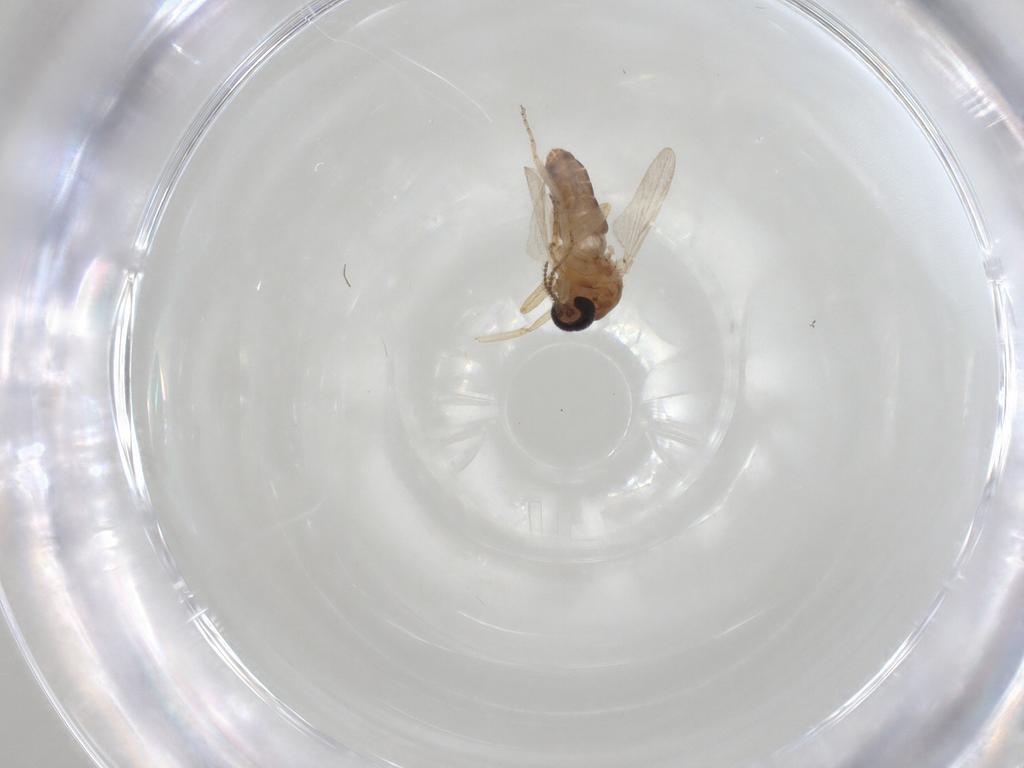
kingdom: Animalia
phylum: Arthropoda
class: Insecta
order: Diptera
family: Ceratopogonidae
